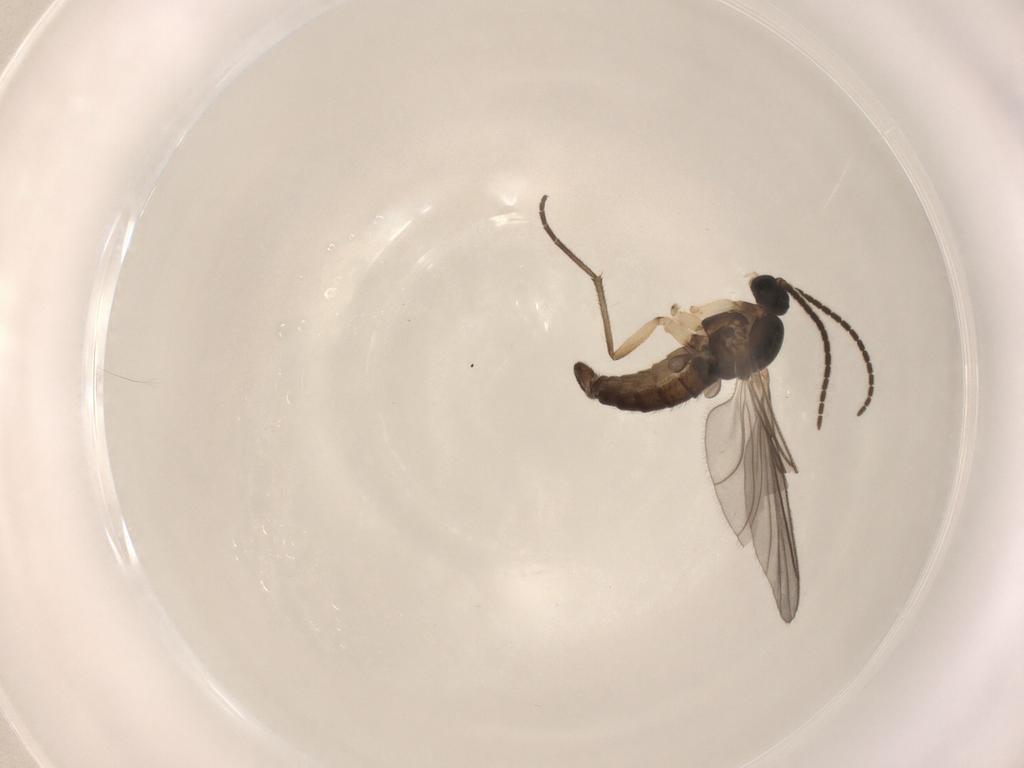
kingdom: Animalia
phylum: Arthropoda
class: Insecta
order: Diptera
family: Sciaridae
